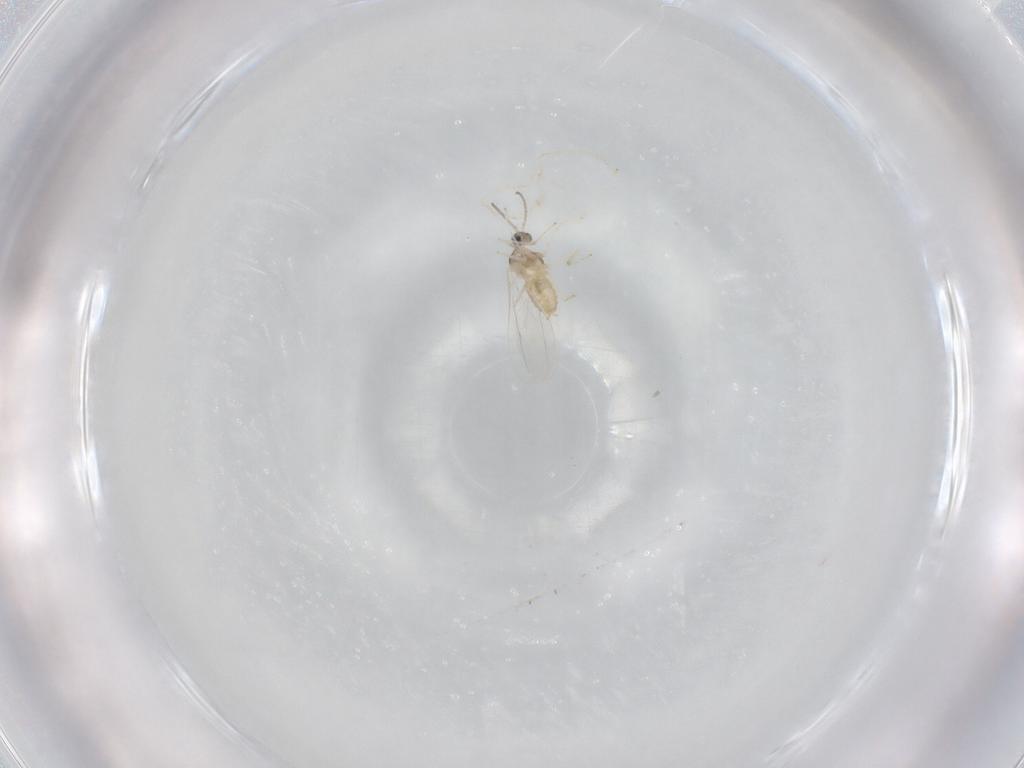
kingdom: Animalia
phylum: Arthropoda
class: Insecta
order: Diptera
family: Cecidomyiidae
